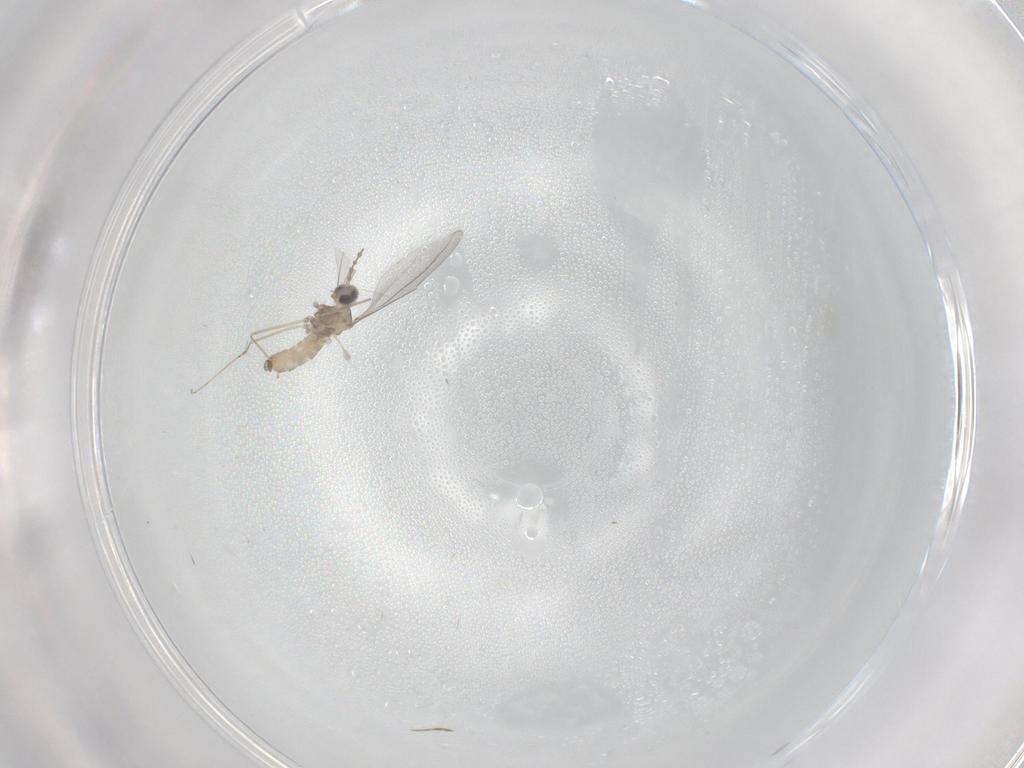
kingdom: Animalia
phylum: Arthropoda
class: Insecta
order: Diptera
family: Cecidomyiidae
